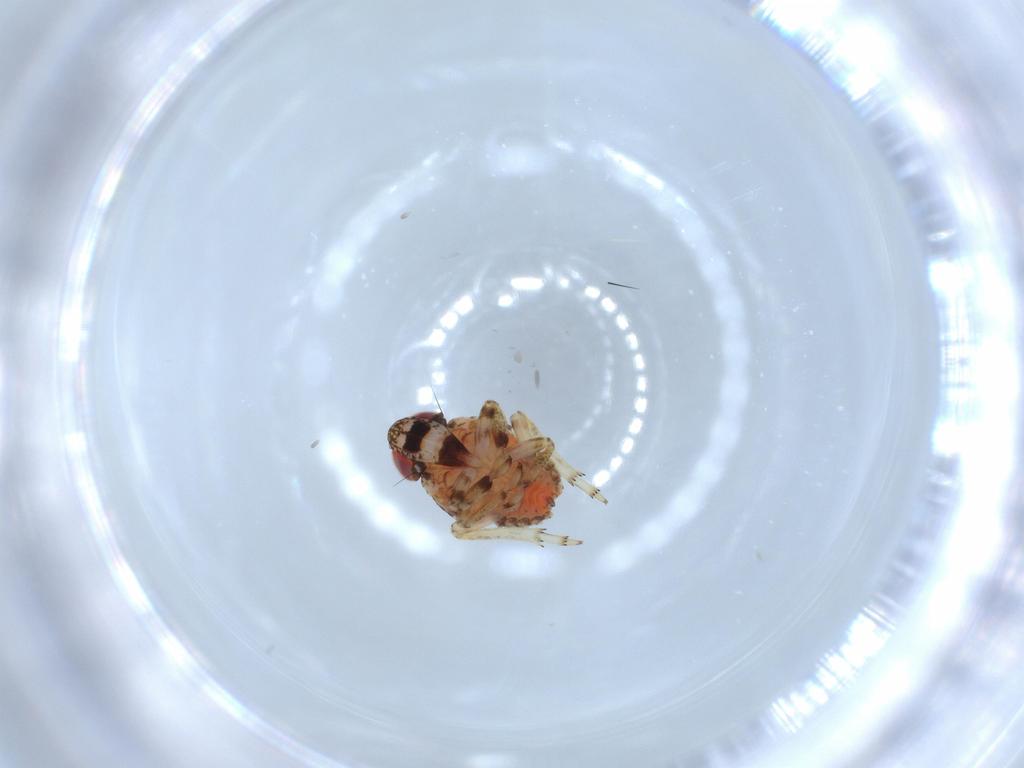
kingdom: Animalia
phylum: Arthropoda
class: Insecta
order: Hemiptera
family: Issidae
